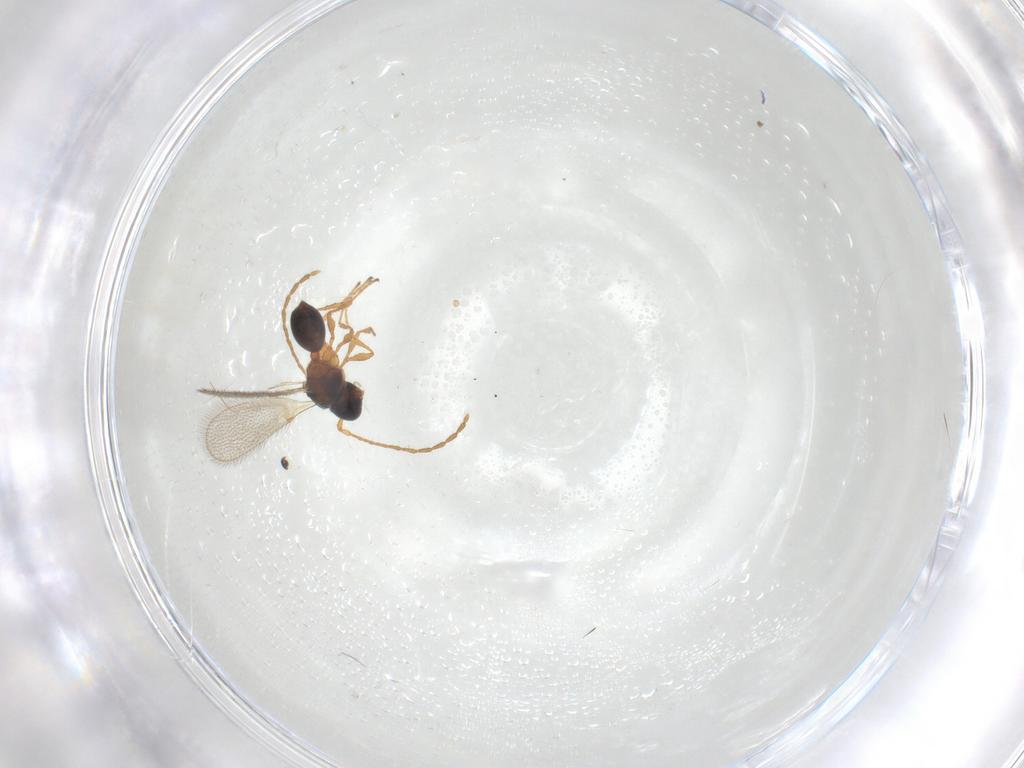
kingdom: Animalia
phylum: Arthropoda
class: Insecta
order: Hymenoptera
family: Diapriidae
